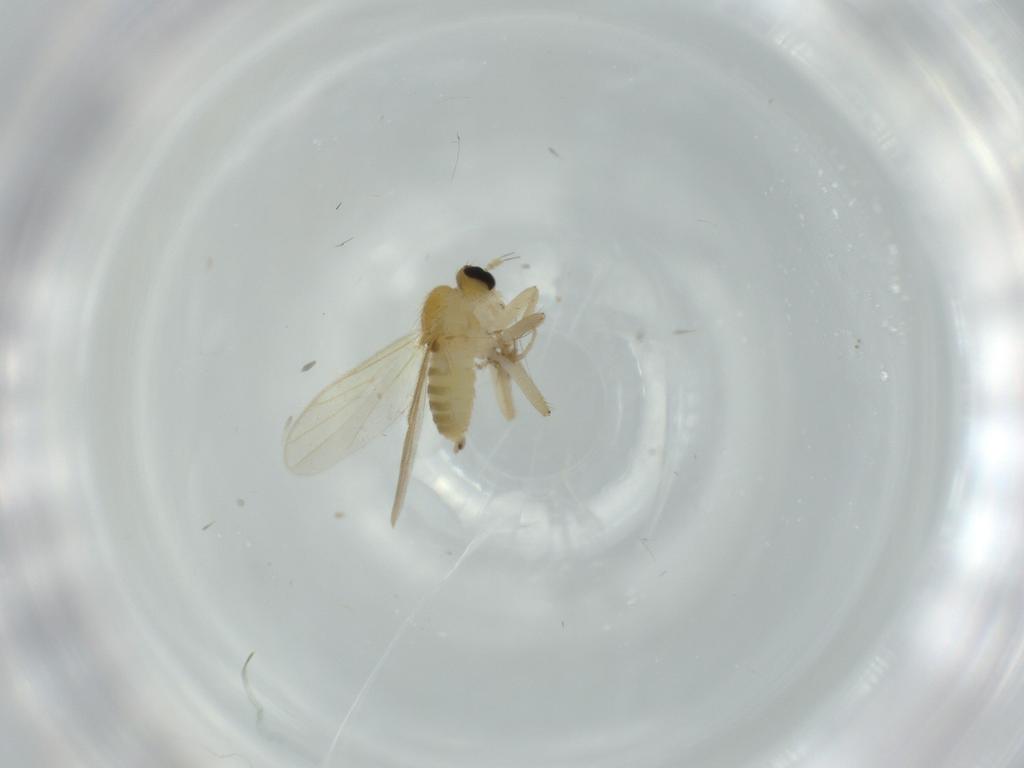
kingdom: Animalia
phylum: Arthropoda
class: Insecta
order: Diptera
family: Hybotidae
